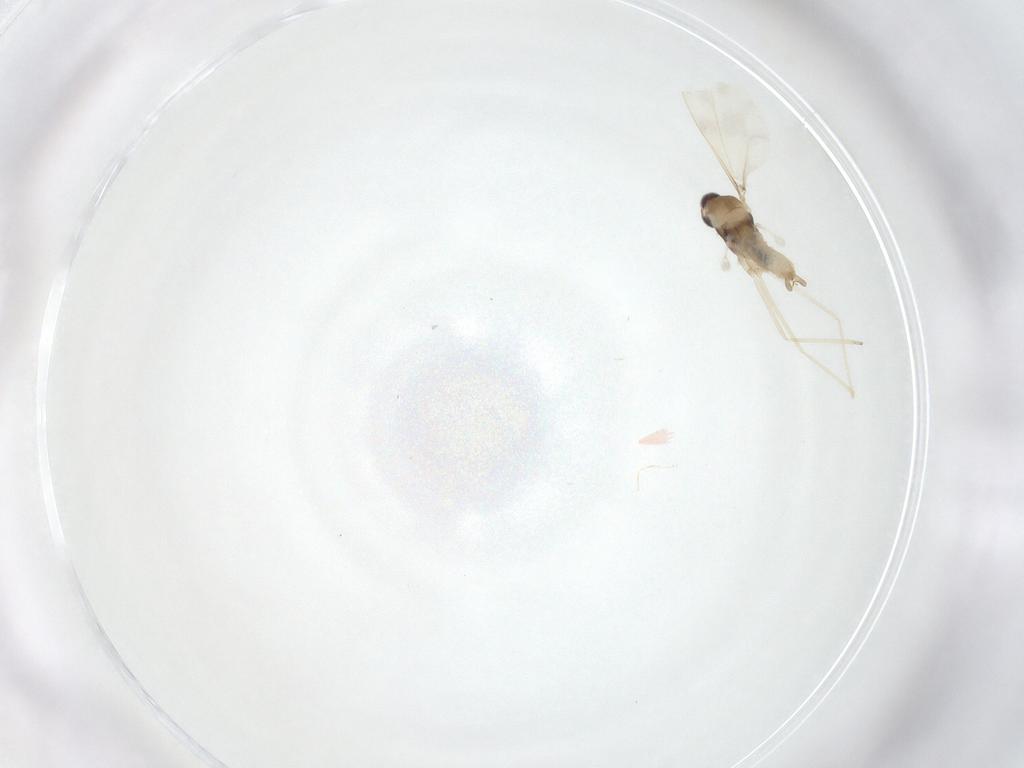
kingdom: Animalia
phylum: Arthropoda
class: Insecta
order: Diptera
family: Cecidomyiidae
